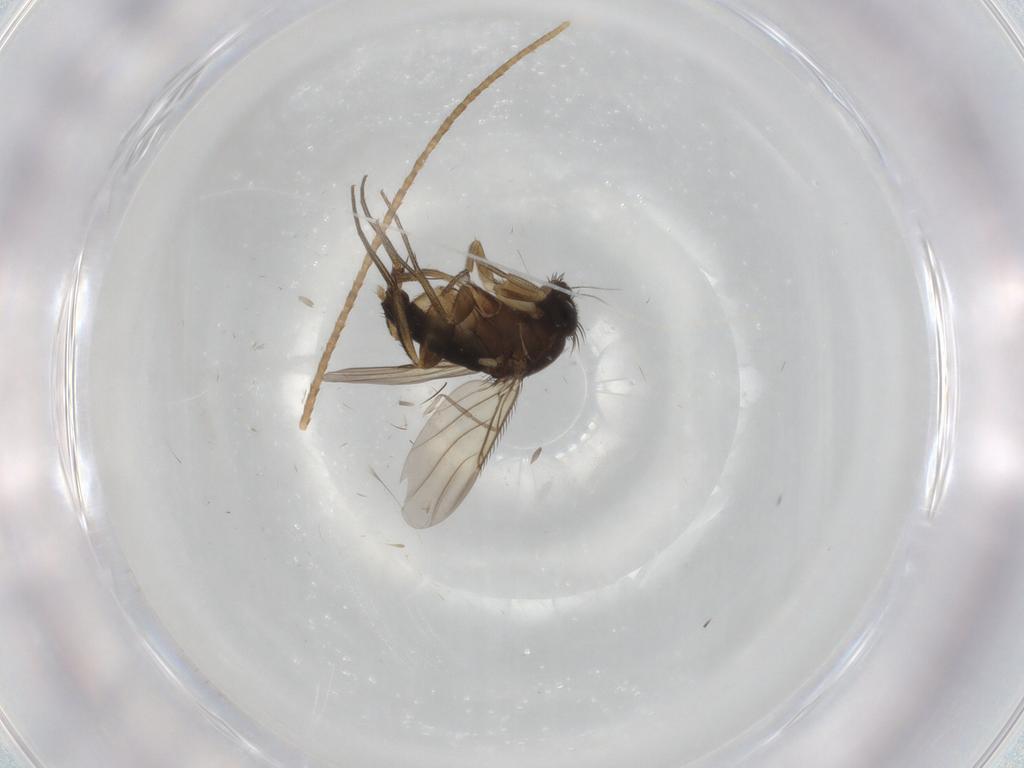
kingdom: Animalia
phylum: Arthropoda
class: Insecta
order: Diptera
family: Phoridae
